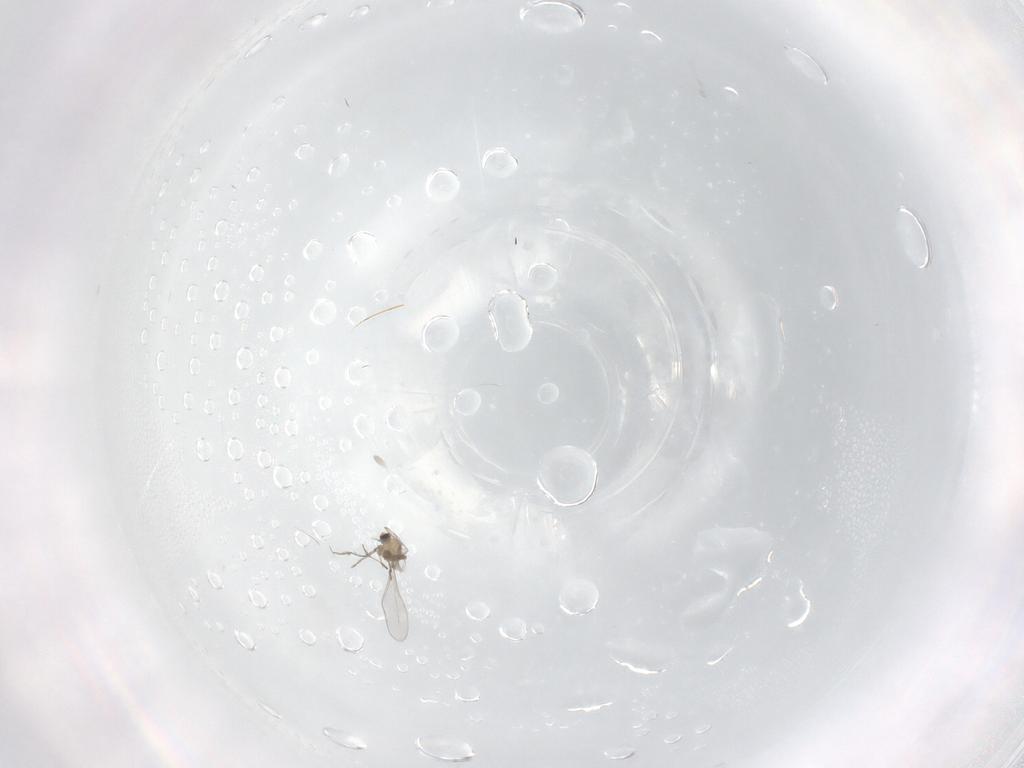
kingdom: Animalia
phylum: Arthropoda
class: Insecta
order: Diptera
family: Cecidomyiidae
